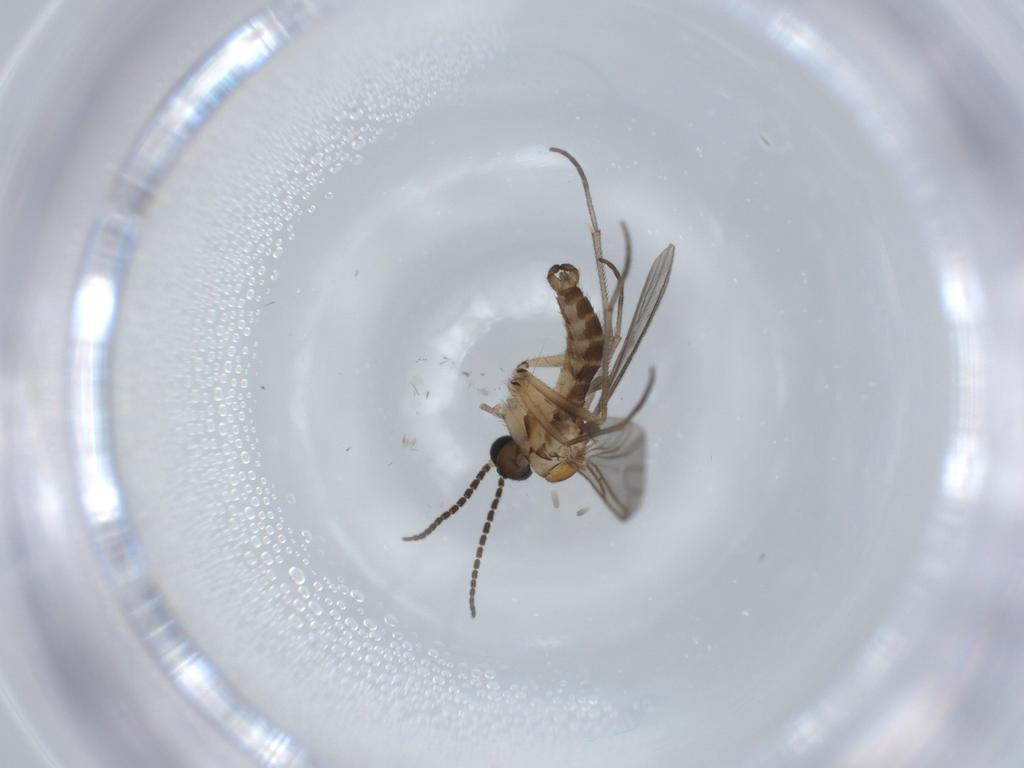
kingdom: Animalia
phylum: Arthropoda
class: Insecta
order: Diptera
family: Sciaridae
